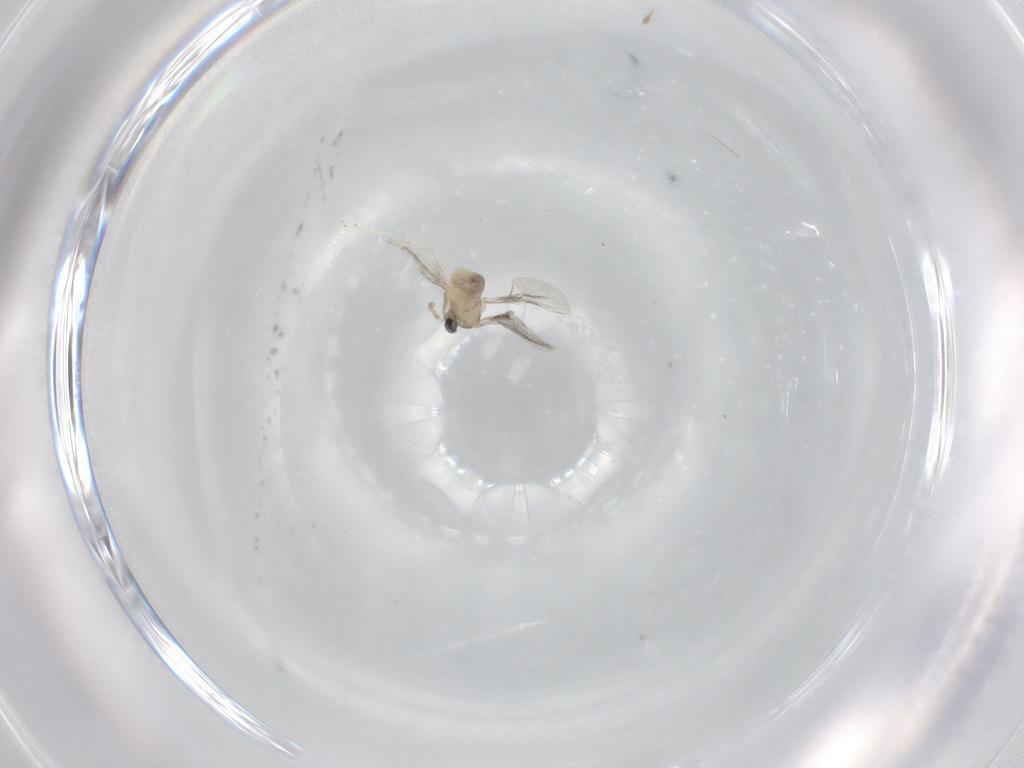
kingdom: Animalia
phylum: Arthropoda
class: Insecta
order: Diptera
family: Cecidomyiidae
